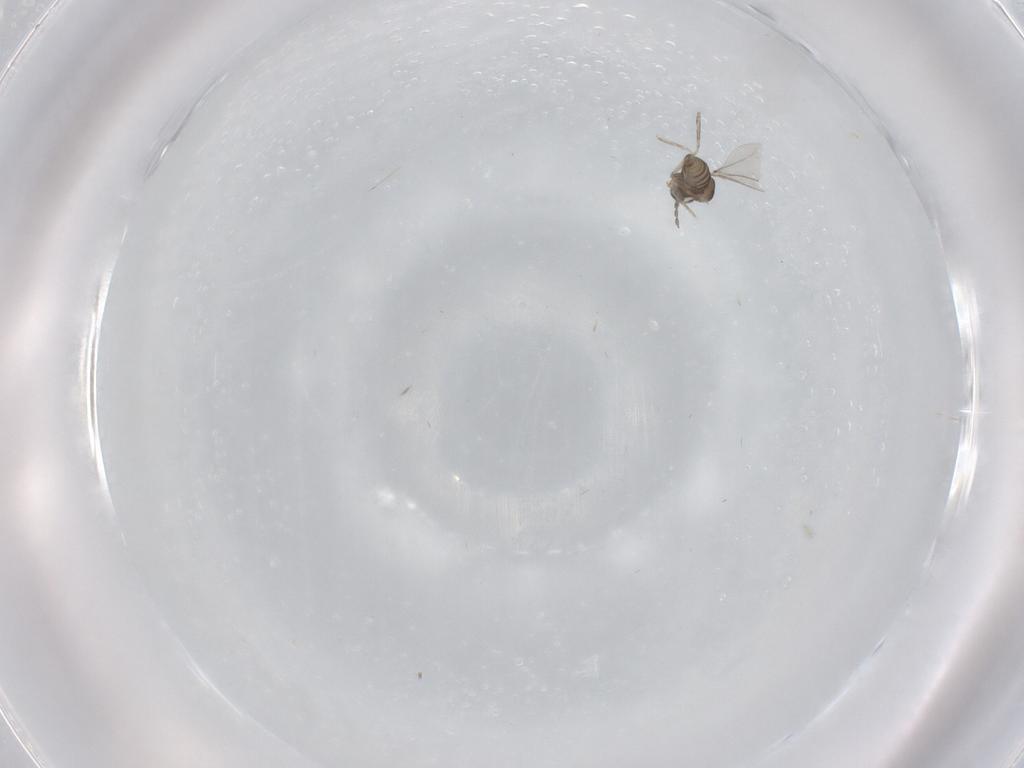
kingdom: Animalia
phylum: Arthropoda
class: Insecta
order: Diptera
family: Cecidomyiidae
